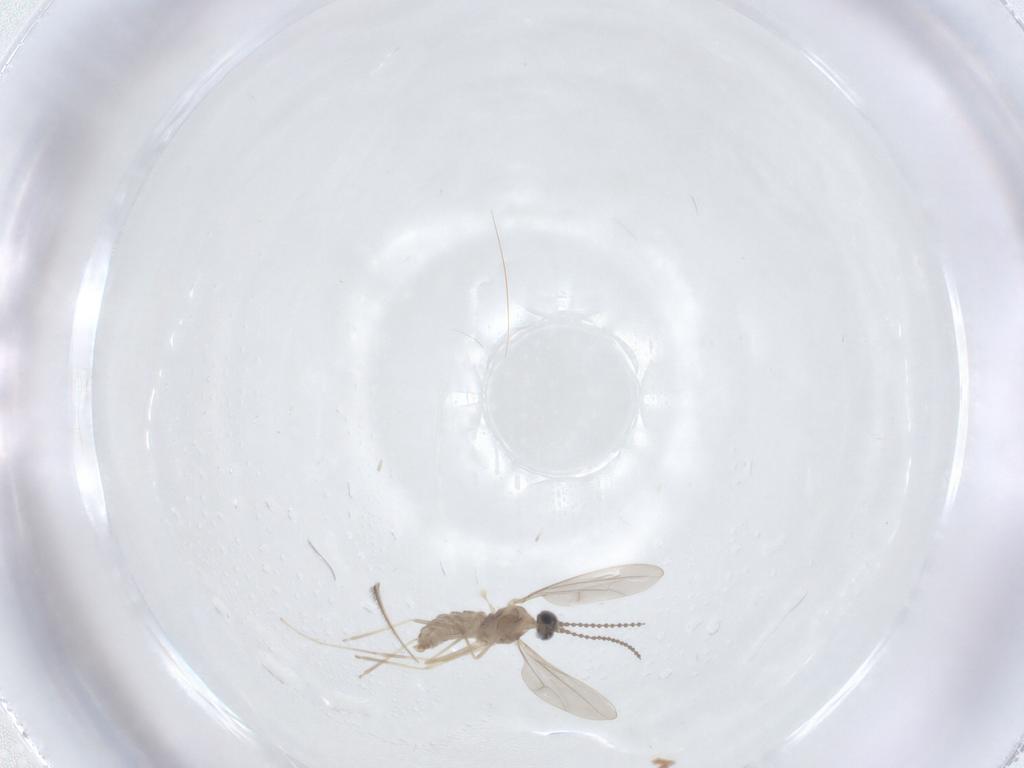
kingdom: Animalia
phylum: Arthropoda
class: Insecta
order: Diptera
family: Cecidomyiidae
